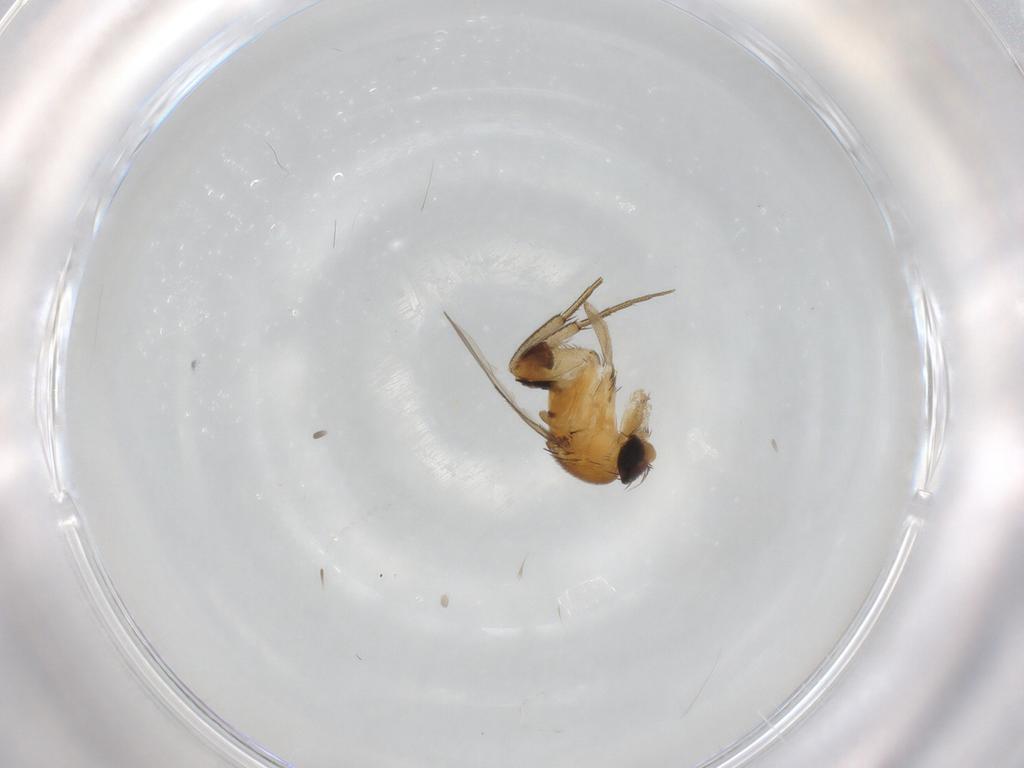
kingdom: Animalia
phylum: Arthropoda
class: Insecta
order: Diptera
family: Phoridae
